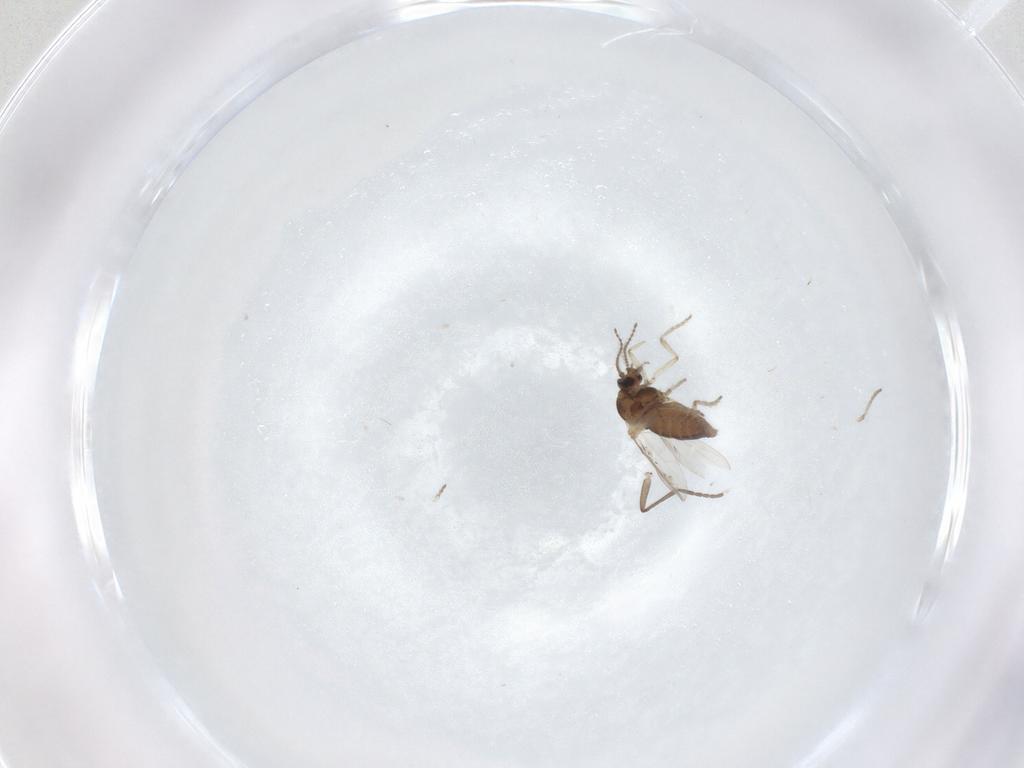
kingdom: Animalia
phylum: Arthropoda
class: Insecta
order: Diptera
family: Ceratopogonidae
